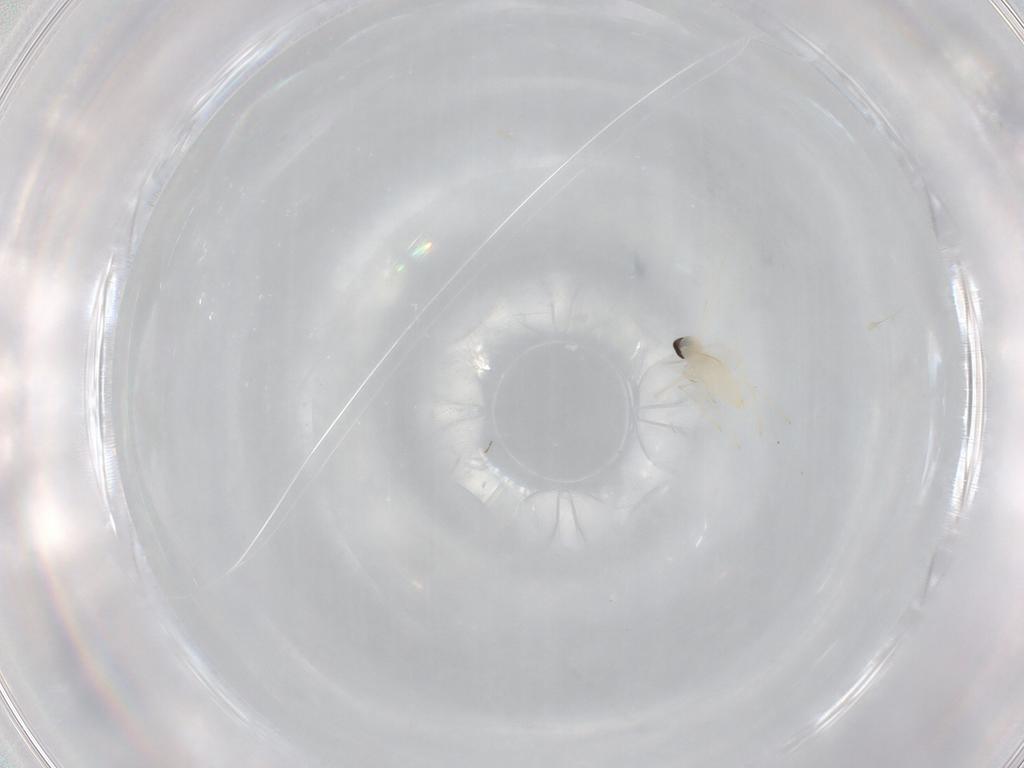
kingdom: Animalia
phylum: Arthropoda
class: Insecta
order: Diptera
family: Cecidomyiidae
